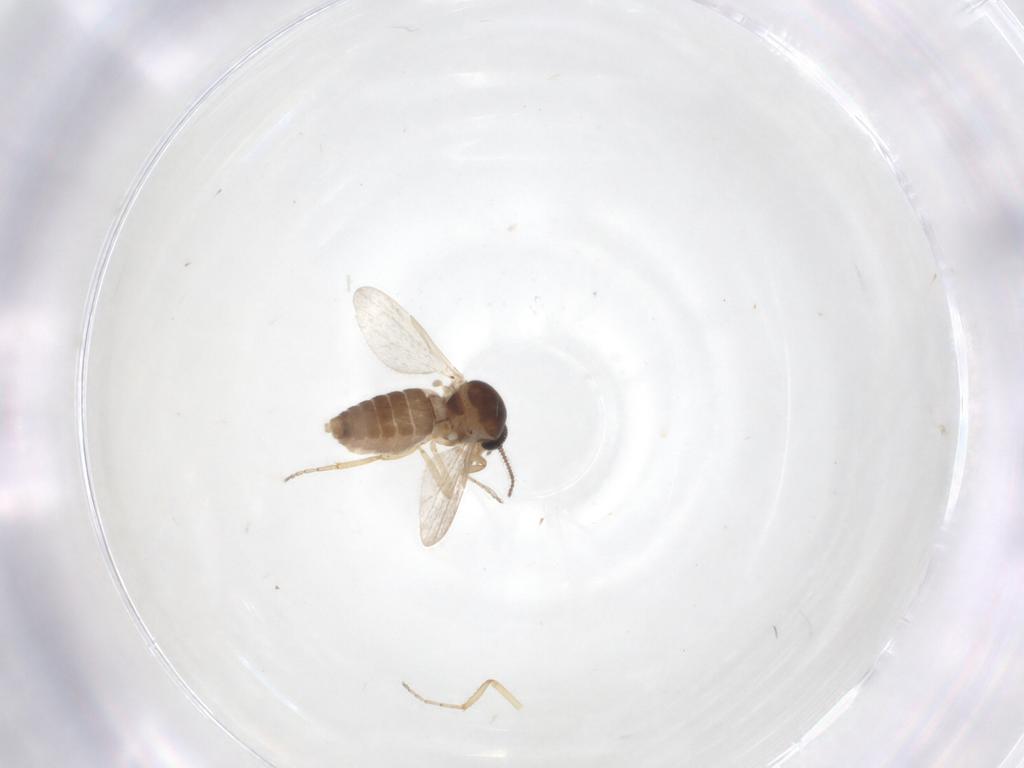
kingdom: Animalia
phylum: Arthropoda
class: Insecta
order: Diptera
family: Ceratopogonidae
